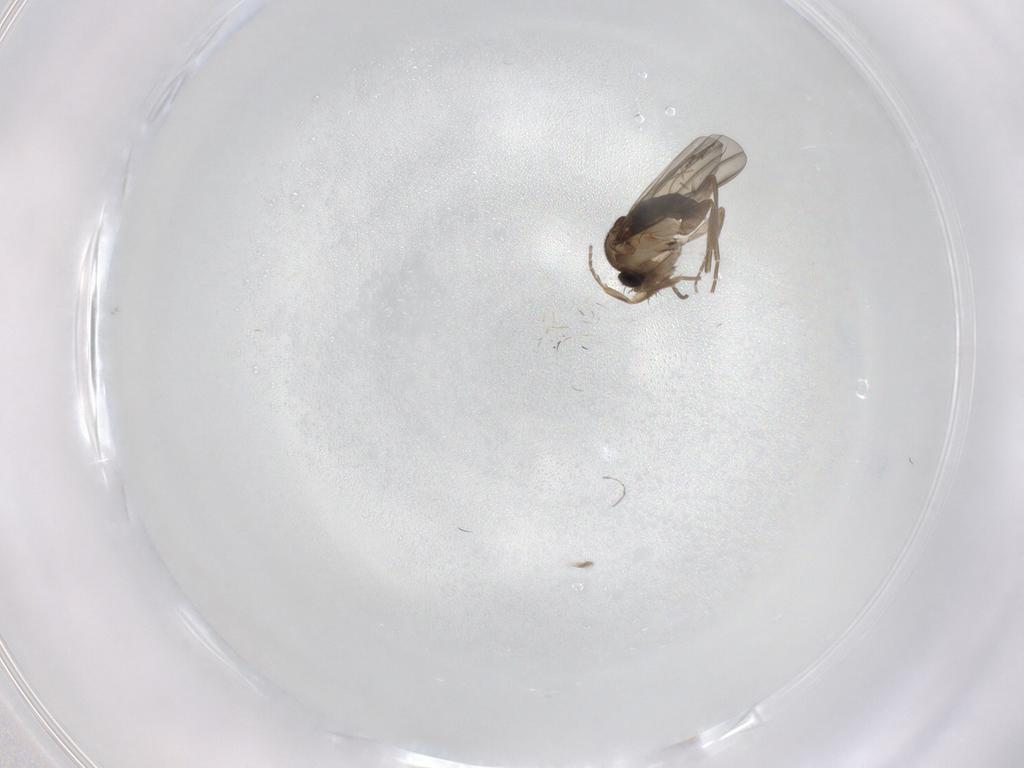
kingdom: Animalia
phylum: Arthropoda
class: Insecta
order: Diptera
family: Phoridae
